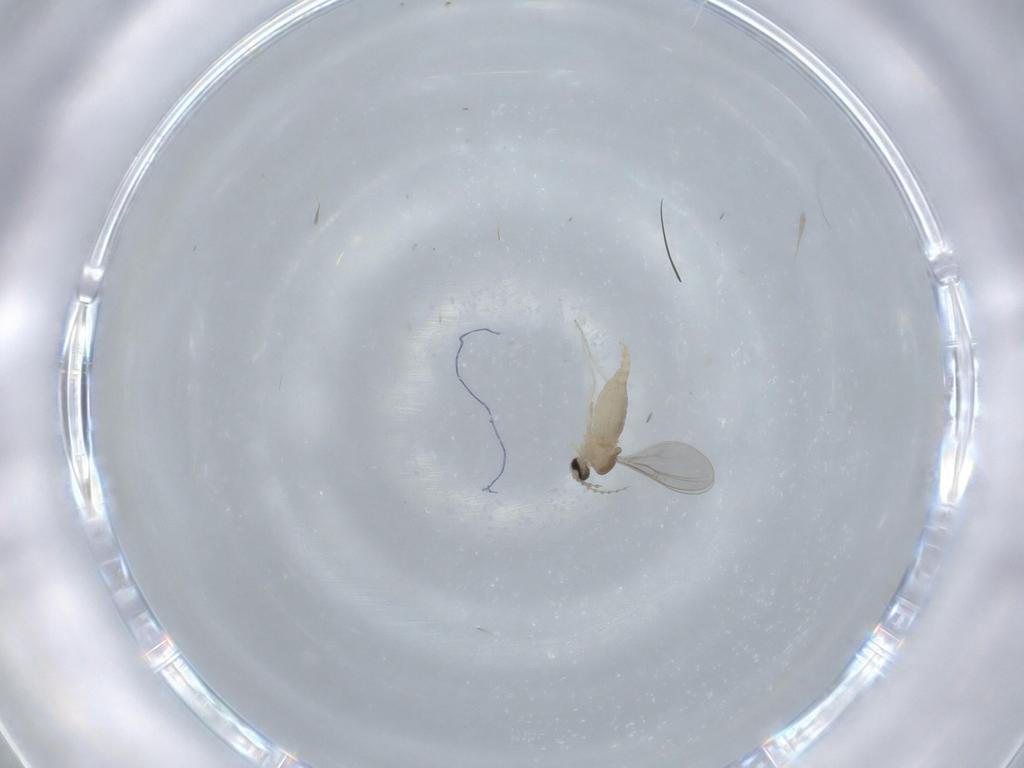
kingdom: Animalia
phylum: Arthropoda
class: Insecta
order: Diptera
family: Cecidomyiidae
